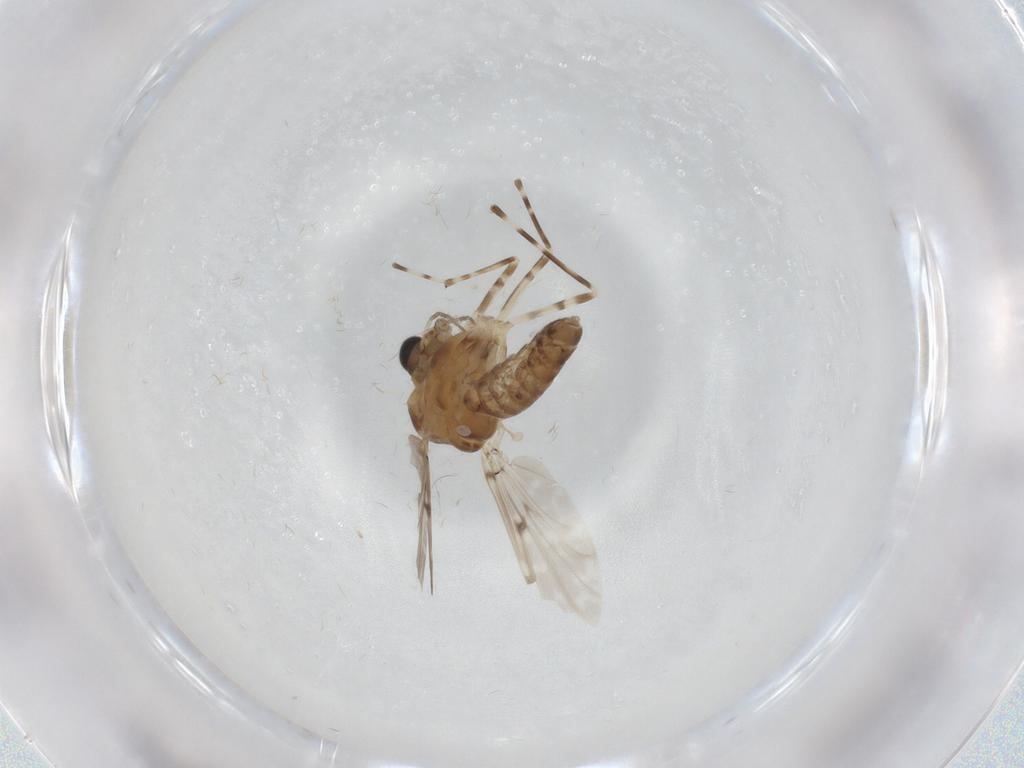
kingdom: Animalia
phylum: Arthropoda
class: Insecta
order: Diptera
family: Chironomidae
